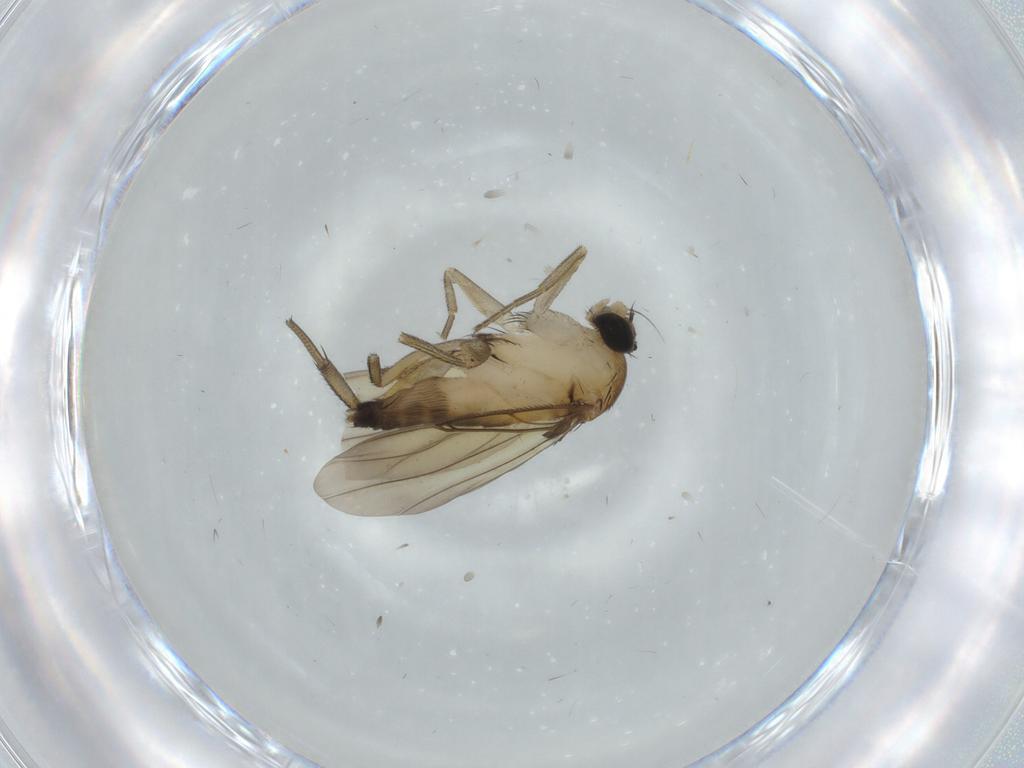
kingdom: Animalia
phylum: Arthropoda
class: Insecta
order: Diptera
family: Phoridae
